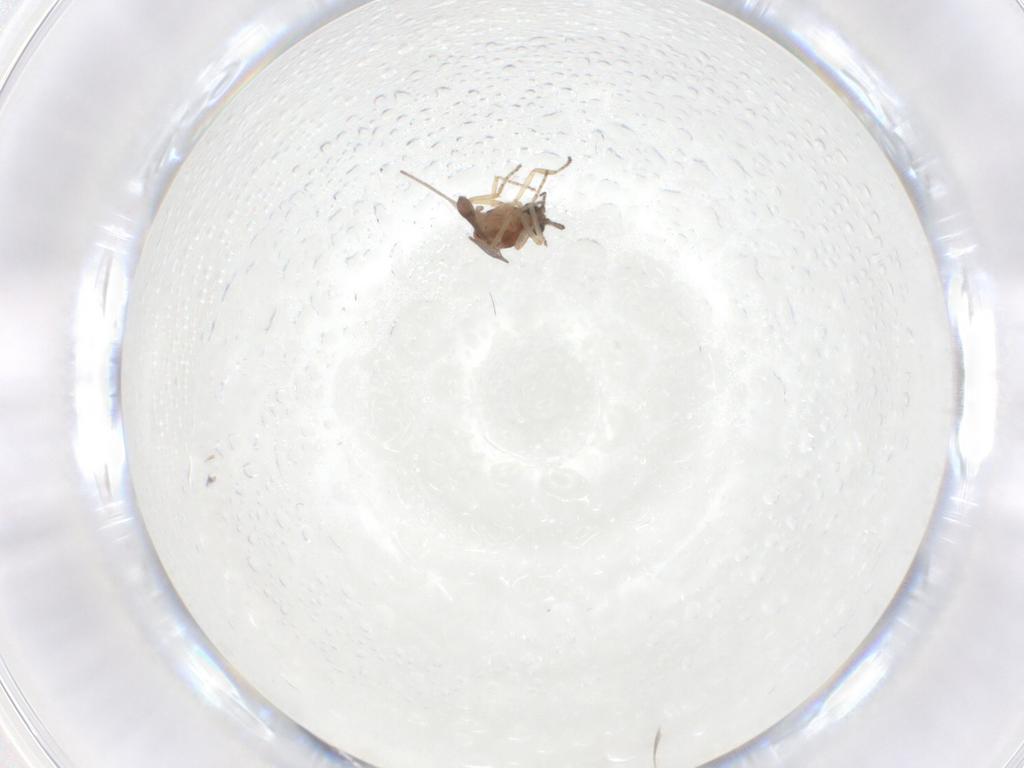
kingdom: Animalia
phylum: Arthropoda
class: Insecta
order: Diptera
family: Ceratopogonidae
